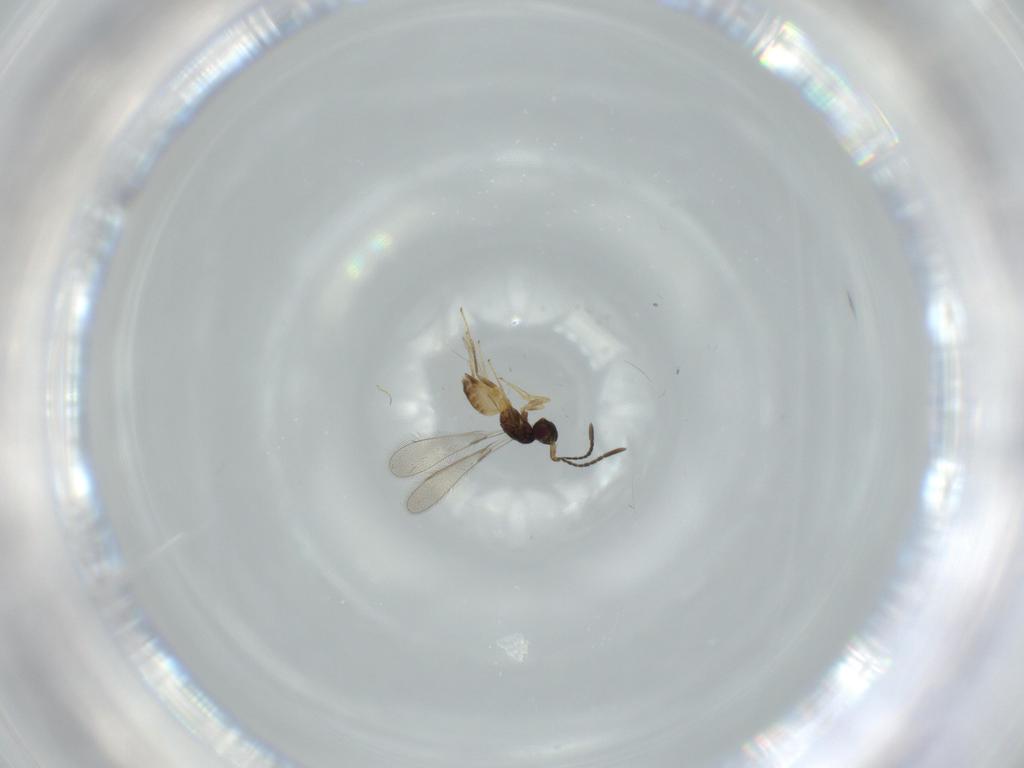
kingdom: Animalia
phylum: Arthropoda
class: Insecta
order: Hymenoptera
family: Mymaridae
